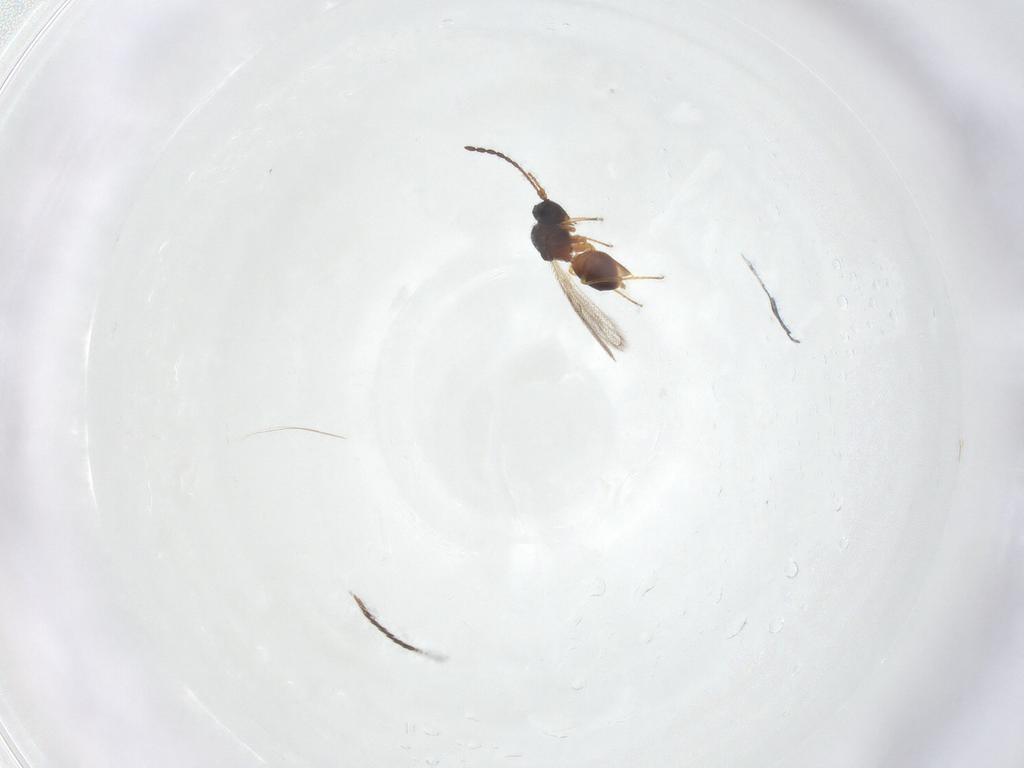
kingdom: Animalia
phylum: Arthropoda
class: Insecta
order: Hymenoptera
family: Figitidae
